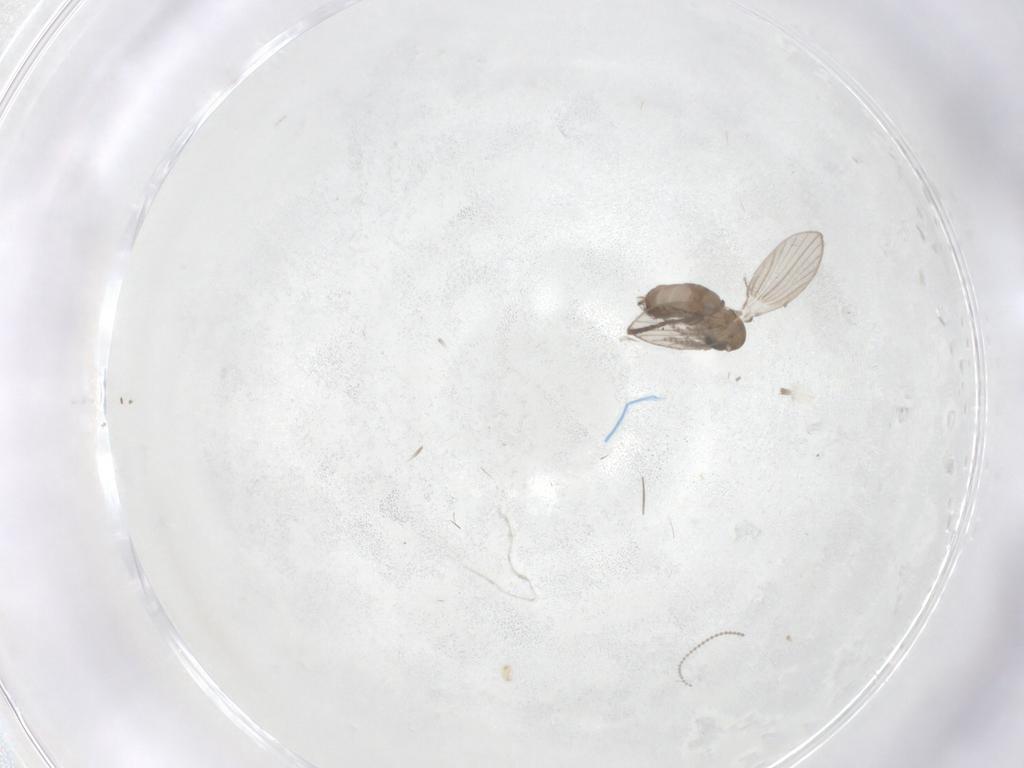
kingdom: Animalia
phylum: Arthropoda
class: Insecta
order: Diptera
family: Psychodidae
